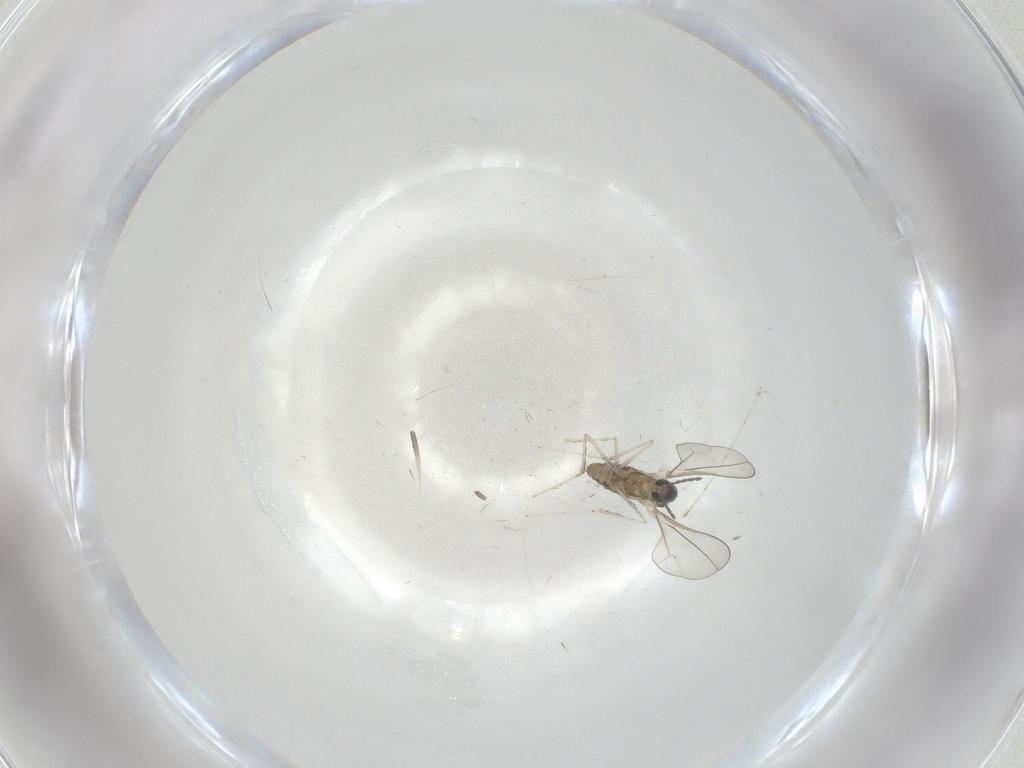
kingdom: Animalia
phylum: Arthropoda
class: Insecta
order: Diptera
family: Cecidomyiidae
